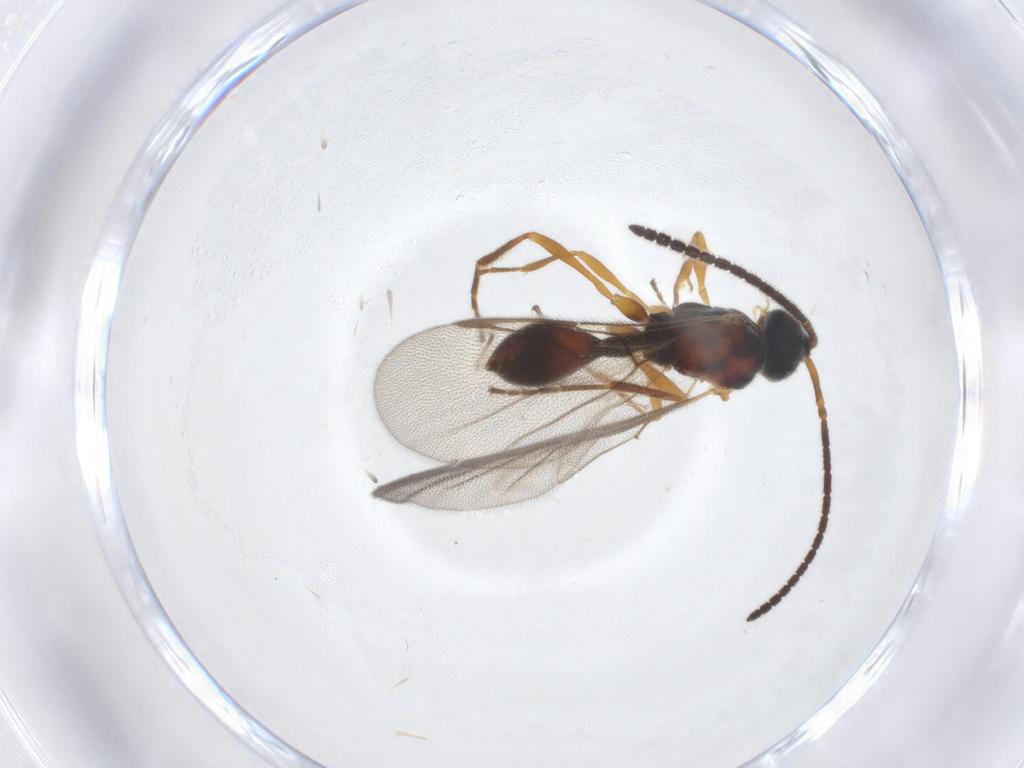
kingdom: Animalia
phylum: Arthropoda
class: Insecta
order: Hymenoptera
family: Diapriidae
